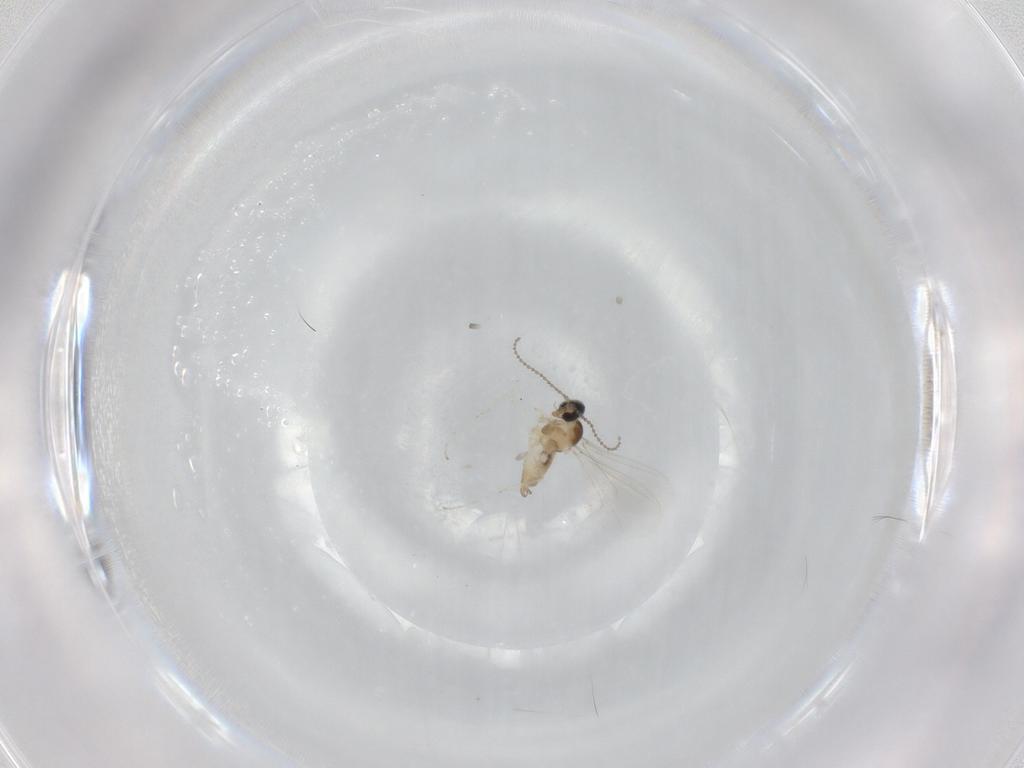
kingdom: Animalia
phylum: Arthropoda
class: Insecta
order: Diptera
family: Cecidomyiidae
